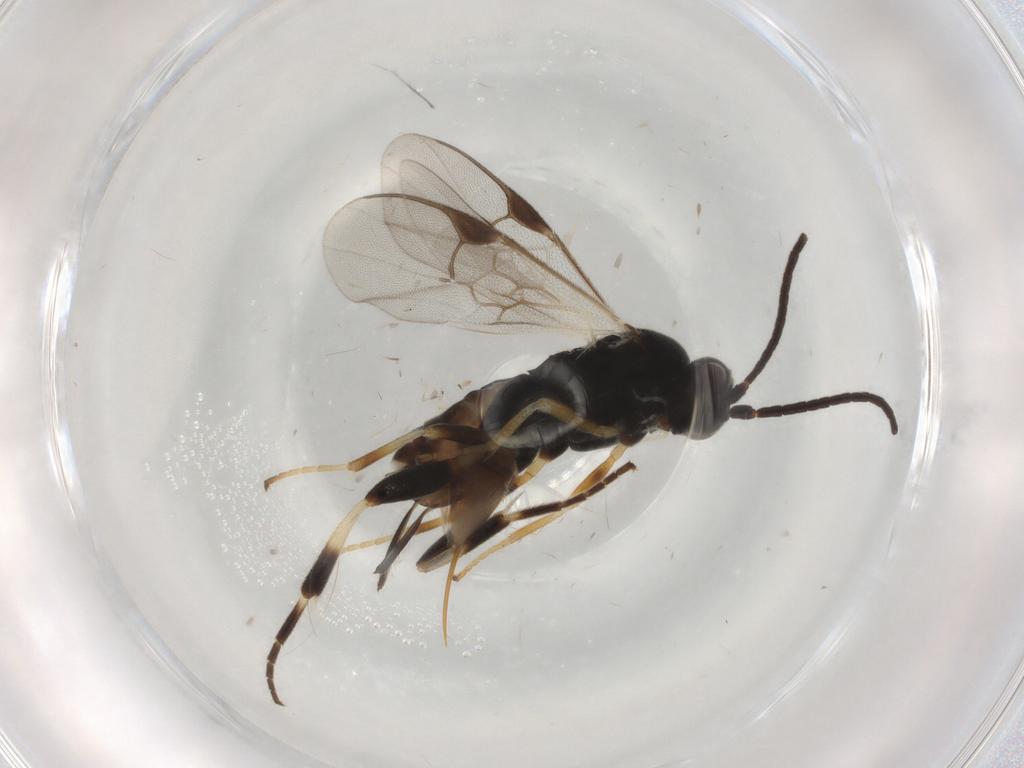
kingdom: Animalia
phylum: Arthropoda
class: Insecta
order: Hymenoptera
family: Braconidae
